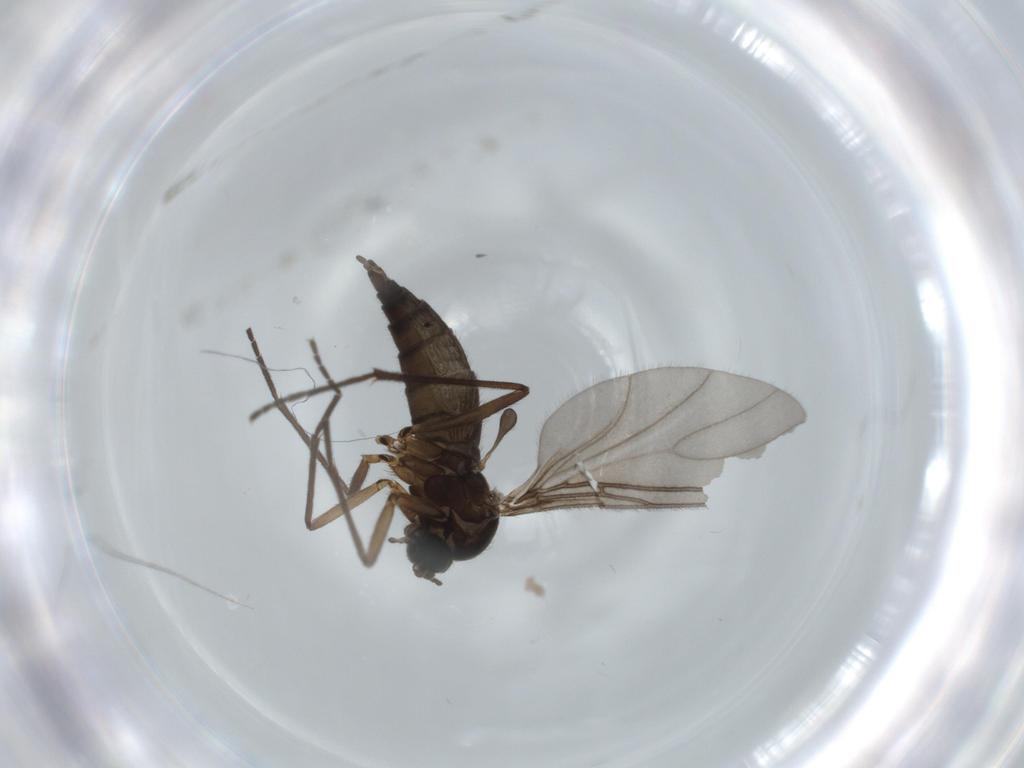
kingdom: Animalia
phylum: Arthropoda
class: Insecta
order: Diptera
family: Sciaridae
